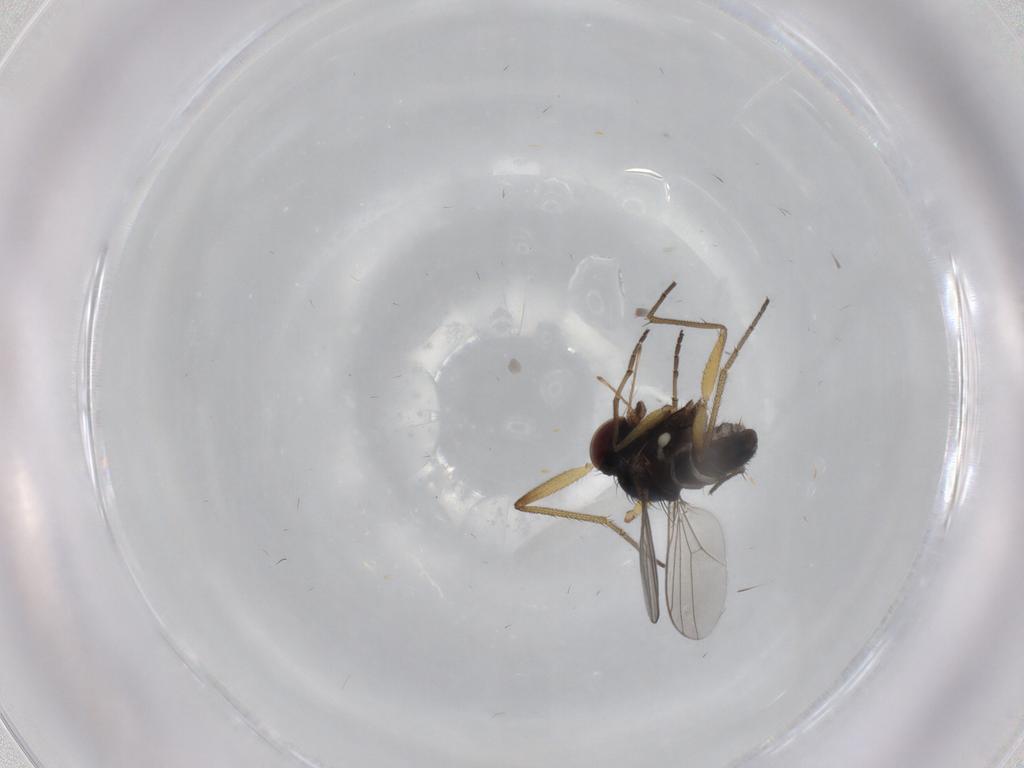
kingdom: Animalia
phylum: Arthropoda
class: Insecta
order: Diptera
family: Dolichopodidae
